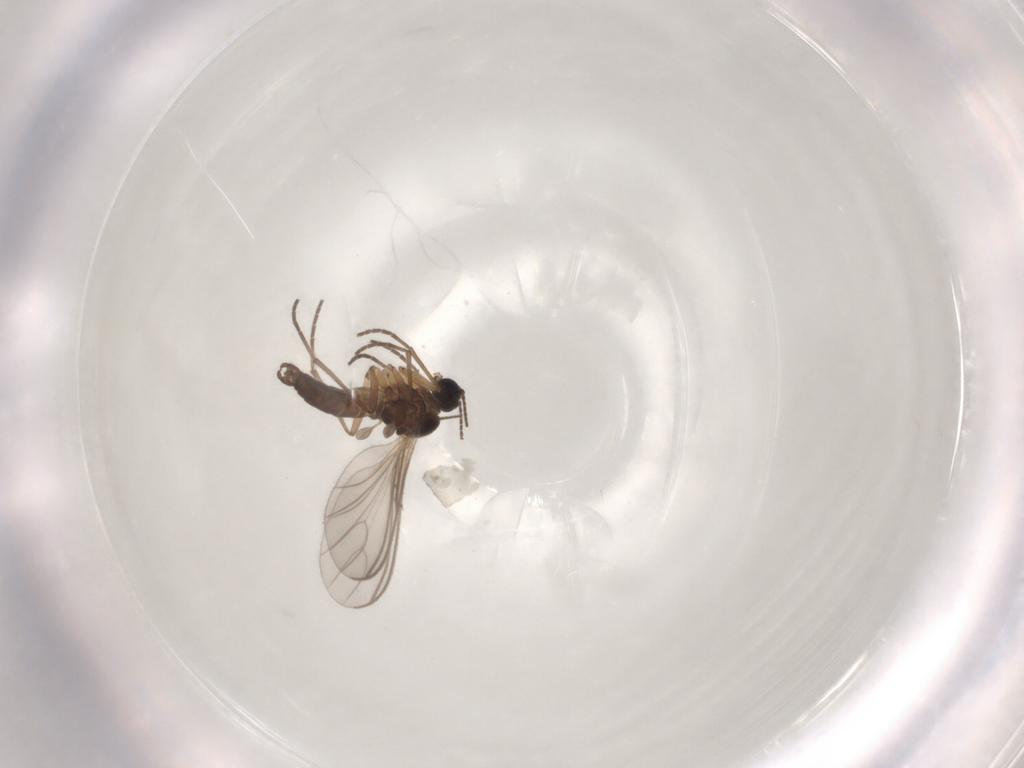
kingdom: Animalia
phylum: Arthropoda
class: Insecta
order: Diptera
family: Sciaridae
